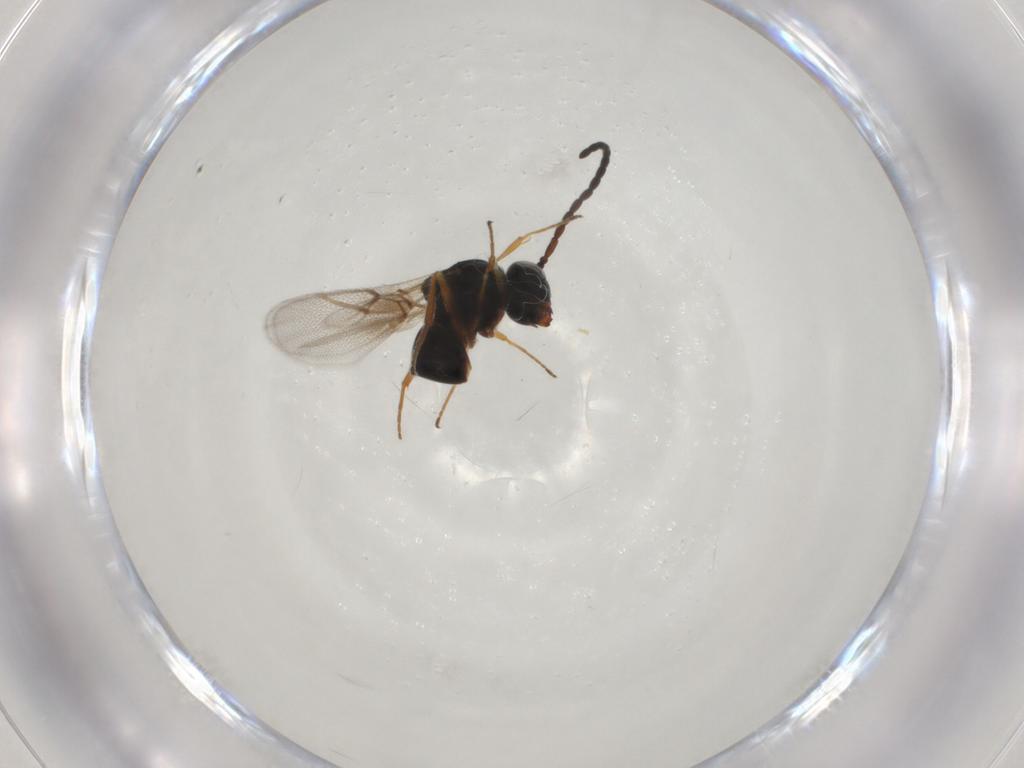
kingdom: Animalia
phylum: Arthropoda
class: Insecta
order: Hymenoptera
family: Figitidae
